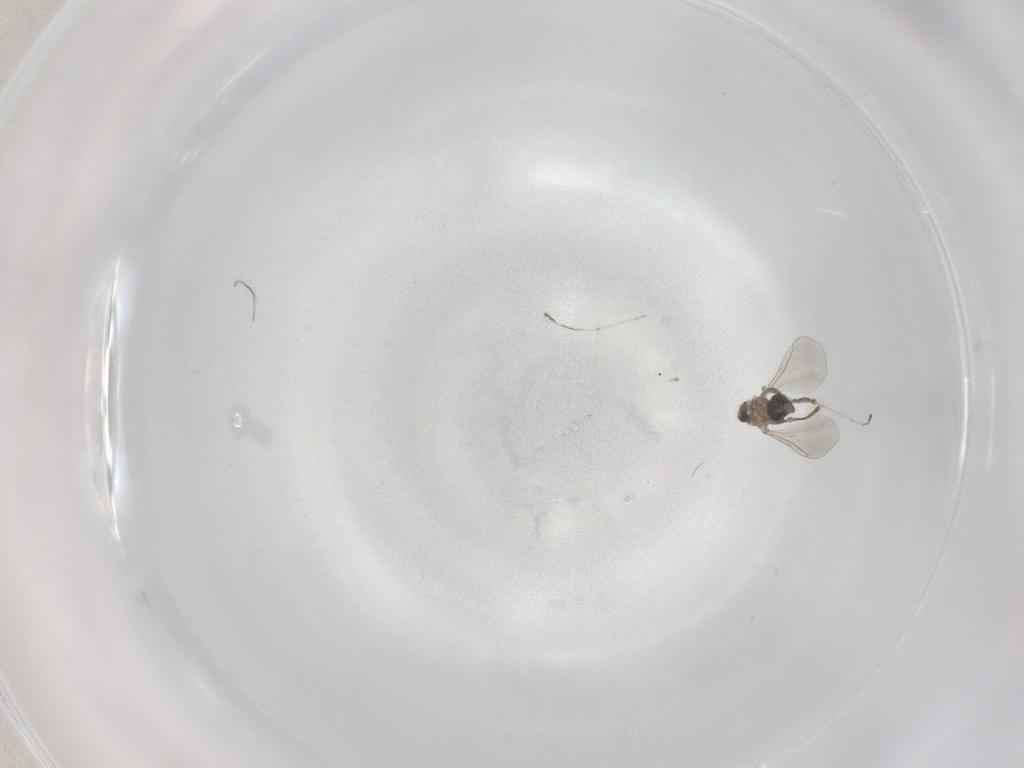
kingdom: Animalia
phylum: Arthropoda
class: Insecta
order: Diptera
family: Cecidomyiidae
